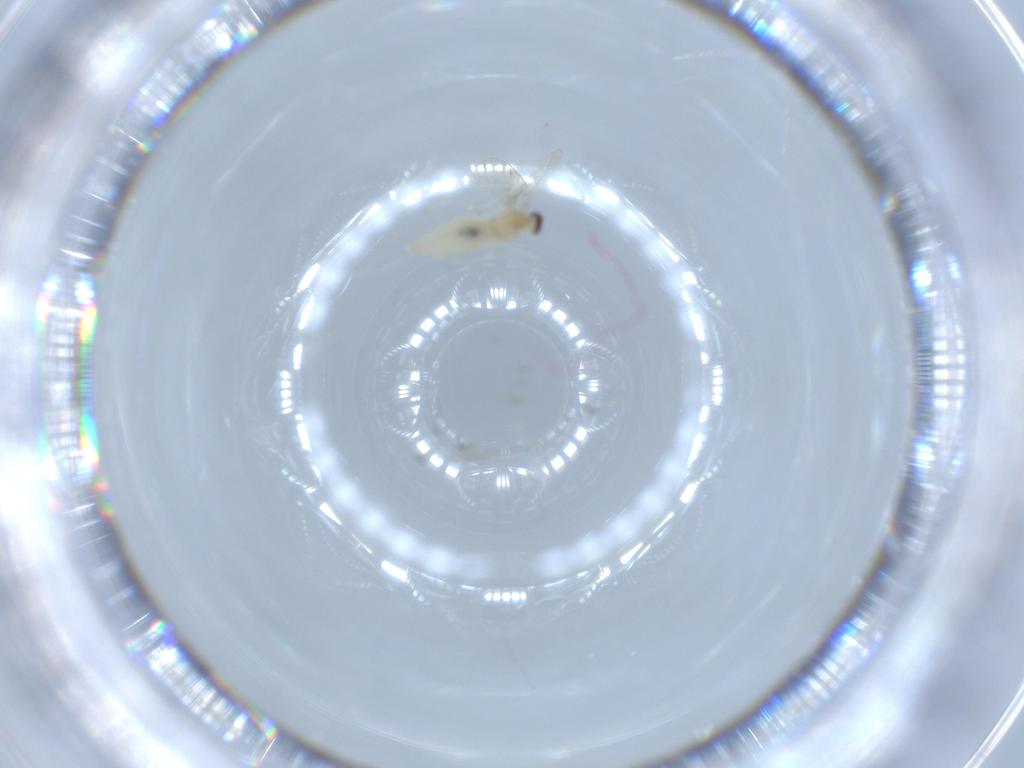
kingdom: Animalia
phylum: Arthropoda
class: Insecta
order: Diptera
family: Cecidomyiidae
